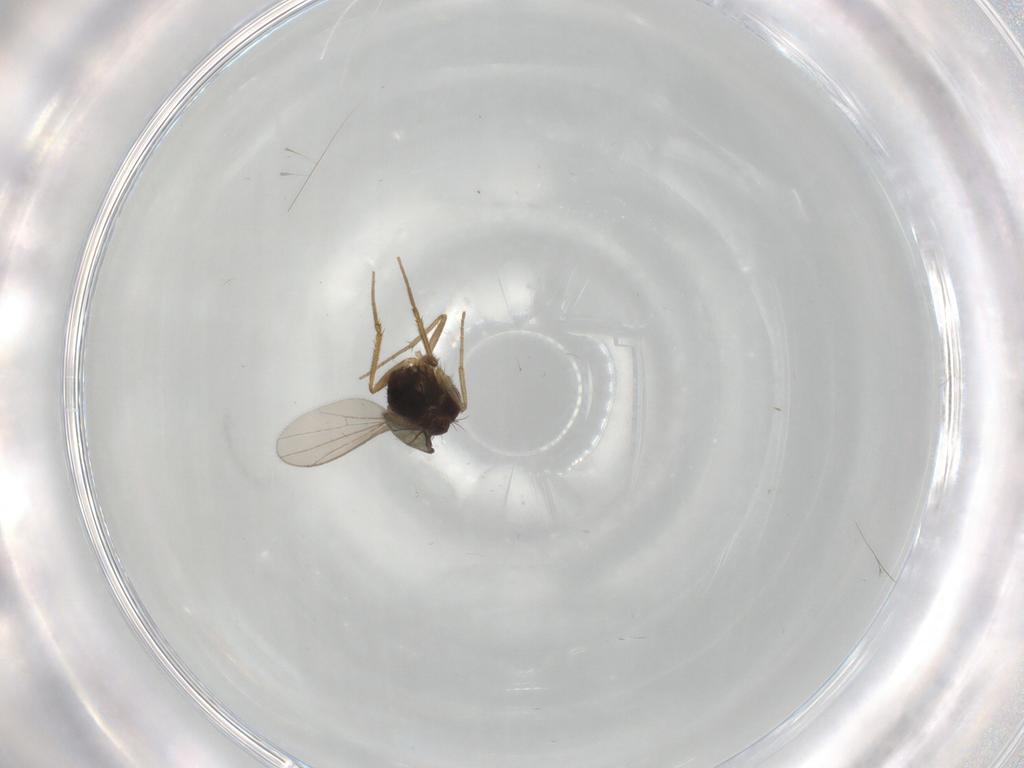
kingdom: Animalia
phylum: Arthropoda
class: Insecta
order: Diptera
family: Dolichopodidae
